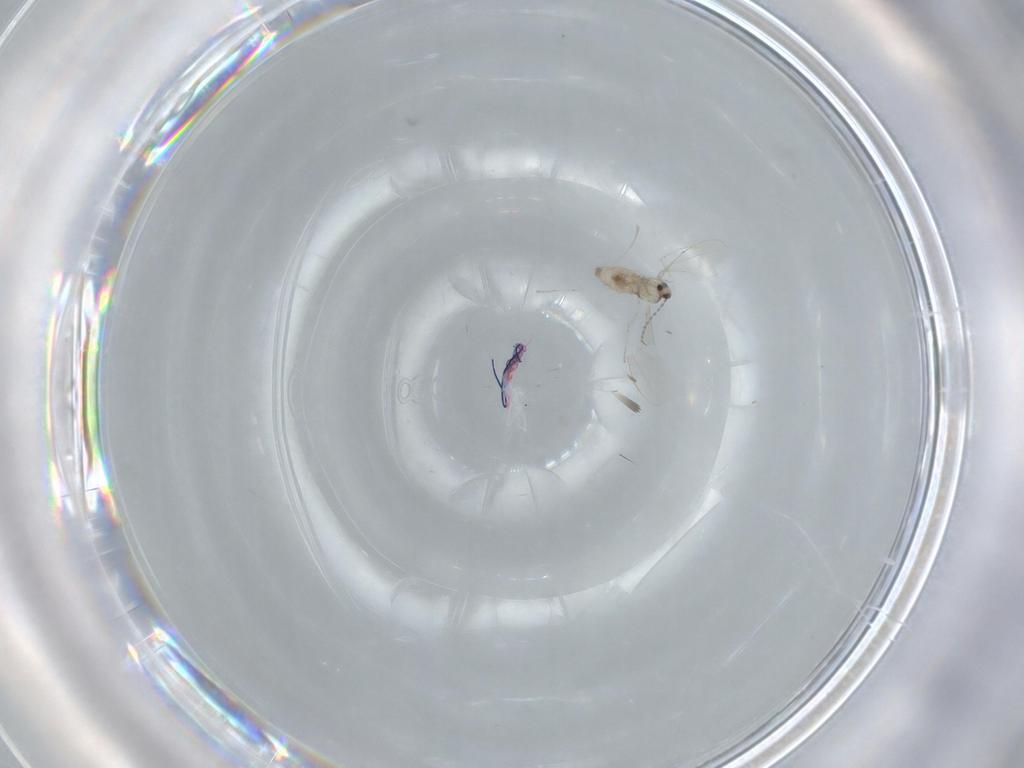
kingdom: Animalia
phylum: Arthropoda
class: Insecta
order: Diptera
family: Cecidomyiidae
